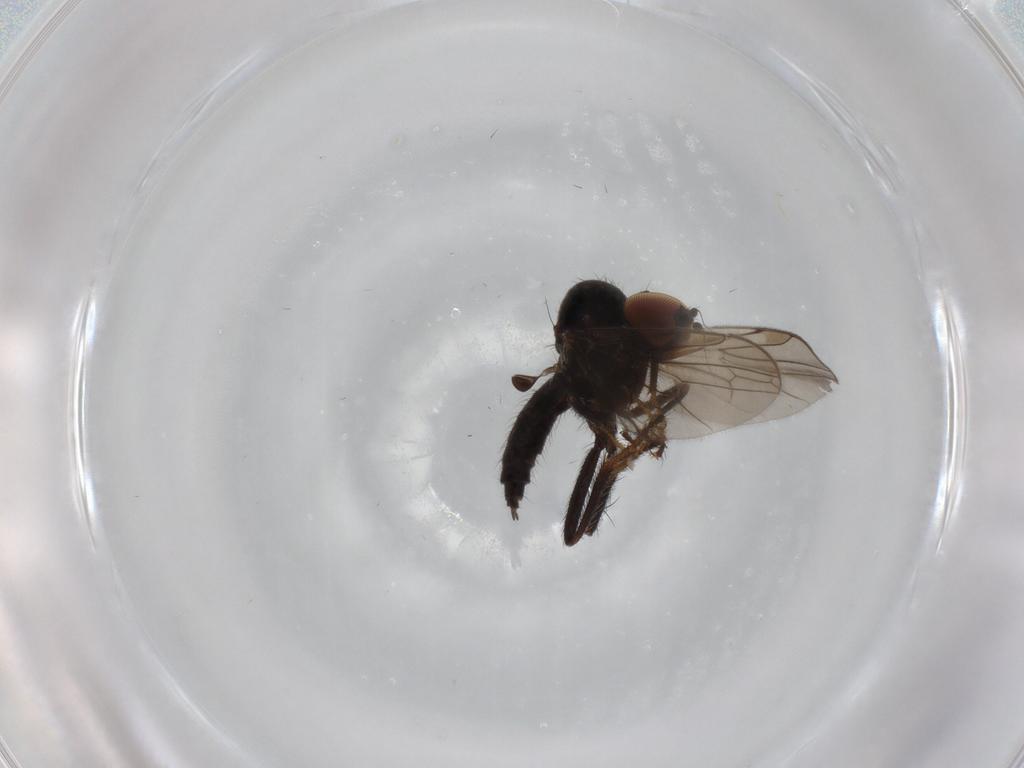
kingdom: Animalia
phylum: Arthropoda
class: Insecta
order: Diptera
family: Hybotidae
